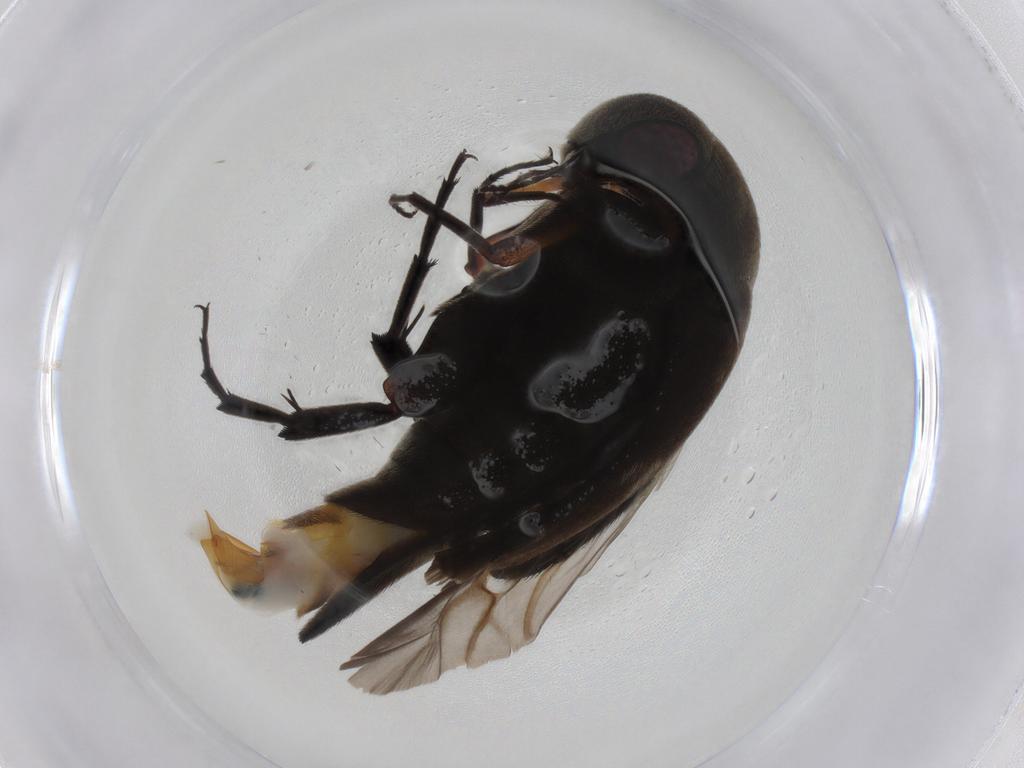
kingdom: Animalia
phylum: Arthropoda
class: Insecta
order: Coleoptera
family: Mordellidae
